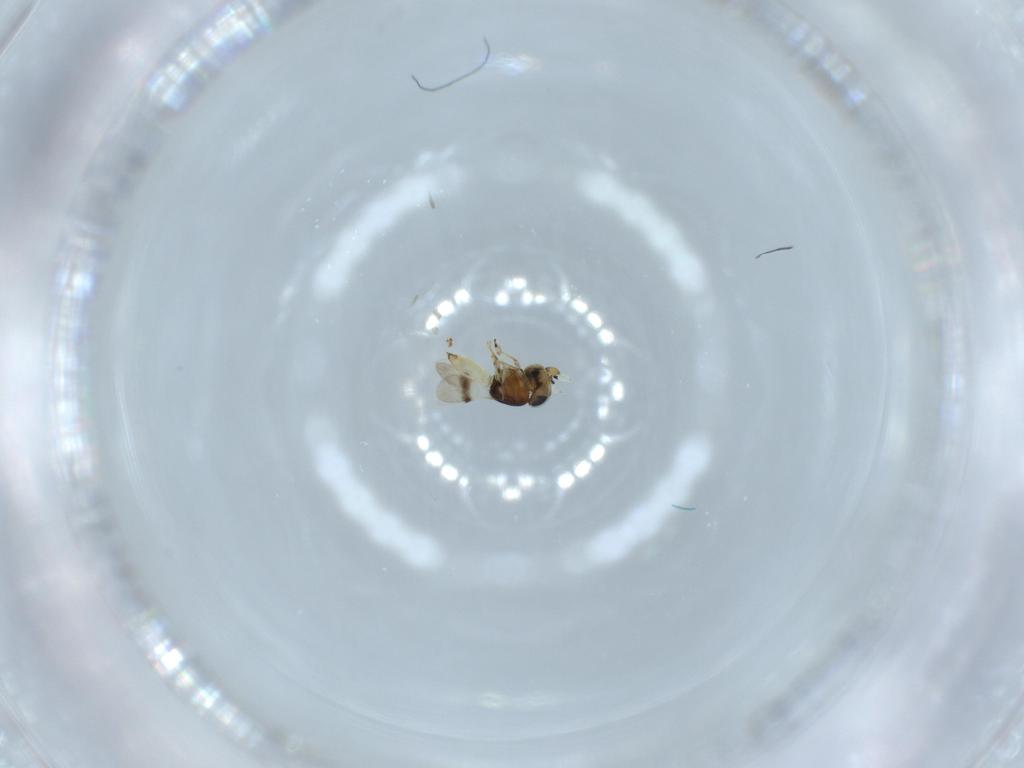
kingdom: Animalia
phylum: Arthropoda
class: Insecta
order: Hymenoptera
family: Scelionidae
